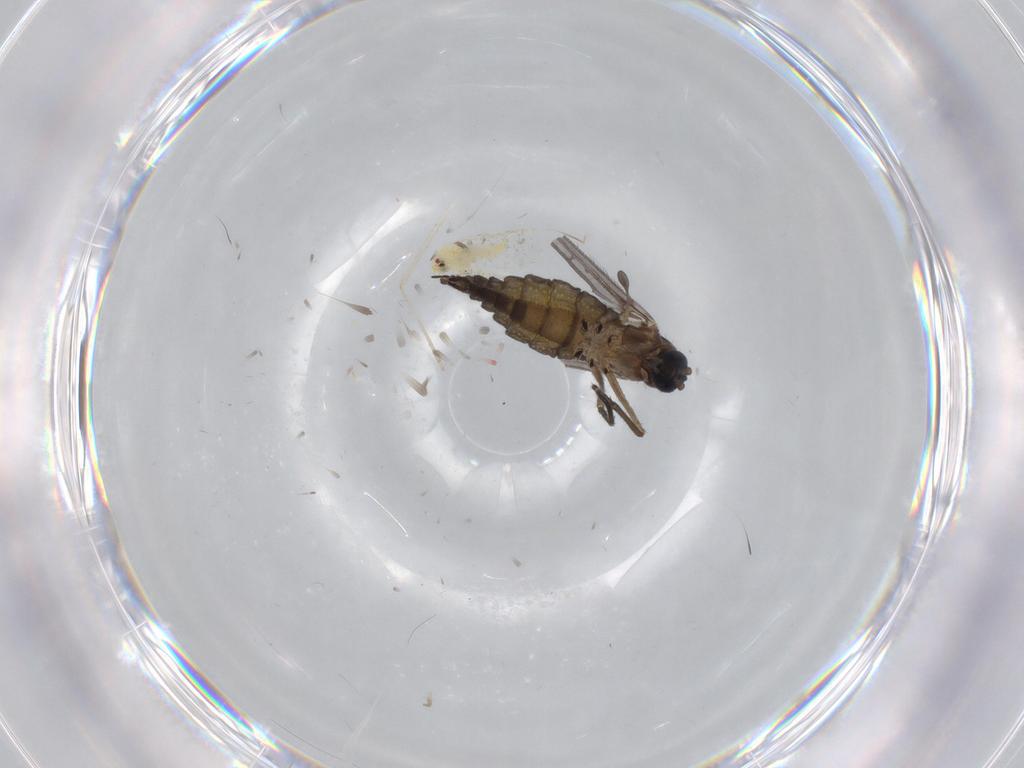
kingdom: Animalia
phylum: Arthropoda
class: Insecta
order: Diptera
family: Sciaridae
